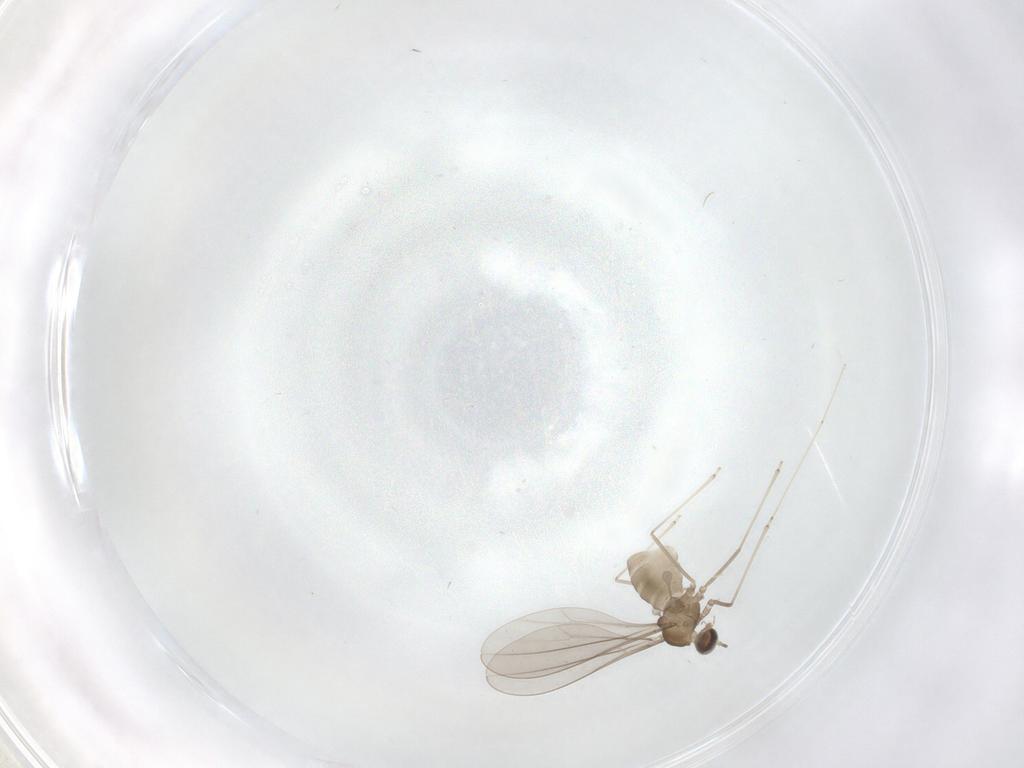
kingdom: Animalia
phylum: Arthropoda
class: Insecta
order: Diptera
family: Cecidomyiidae
